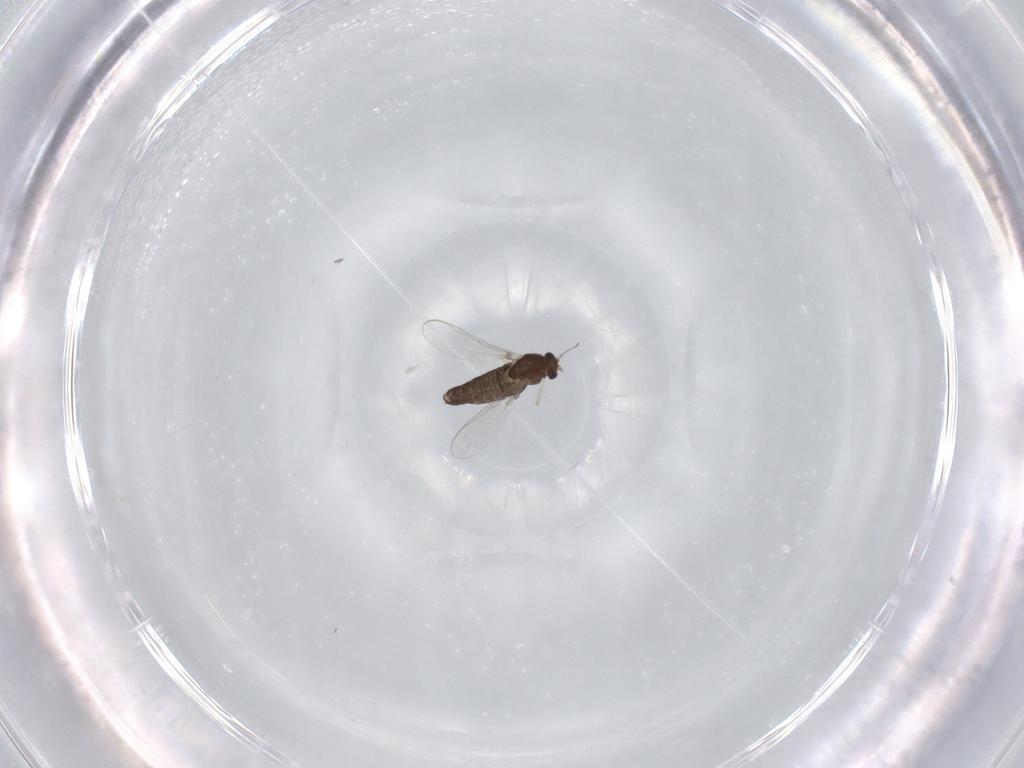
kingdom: Animalia
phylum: Arthropoda
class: Insecta
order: Diptera
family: Chironomidae
